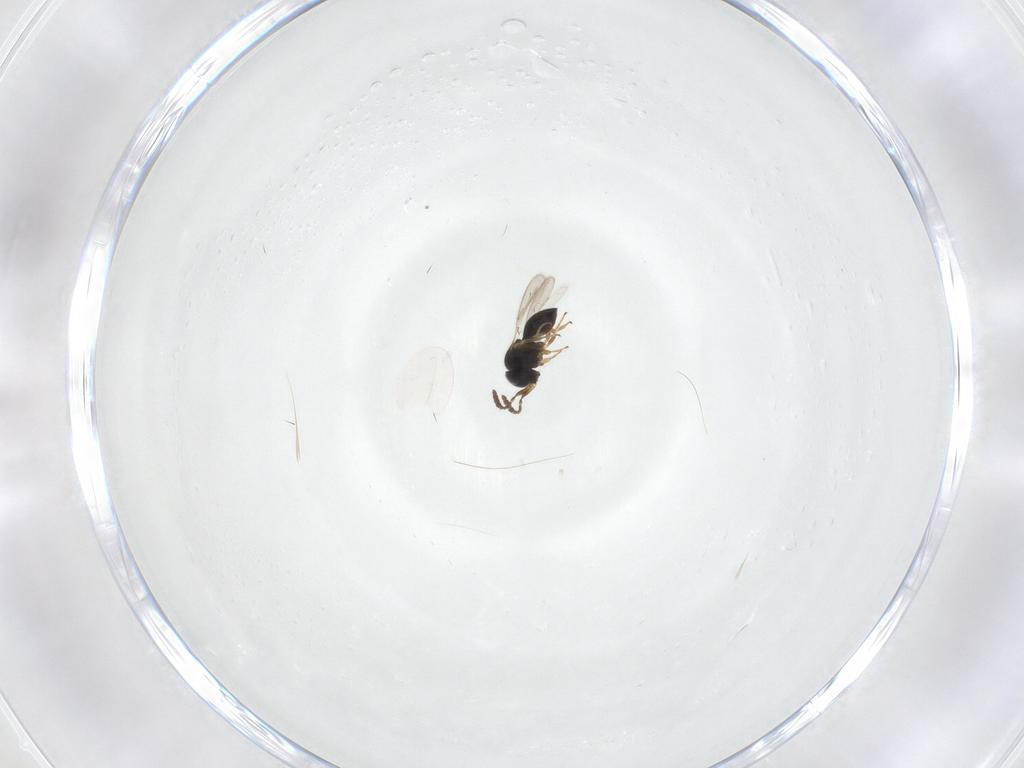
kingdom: Animalia
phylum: Arthropoda
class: Insecta
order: Hymenoptera
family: Scelionidae
